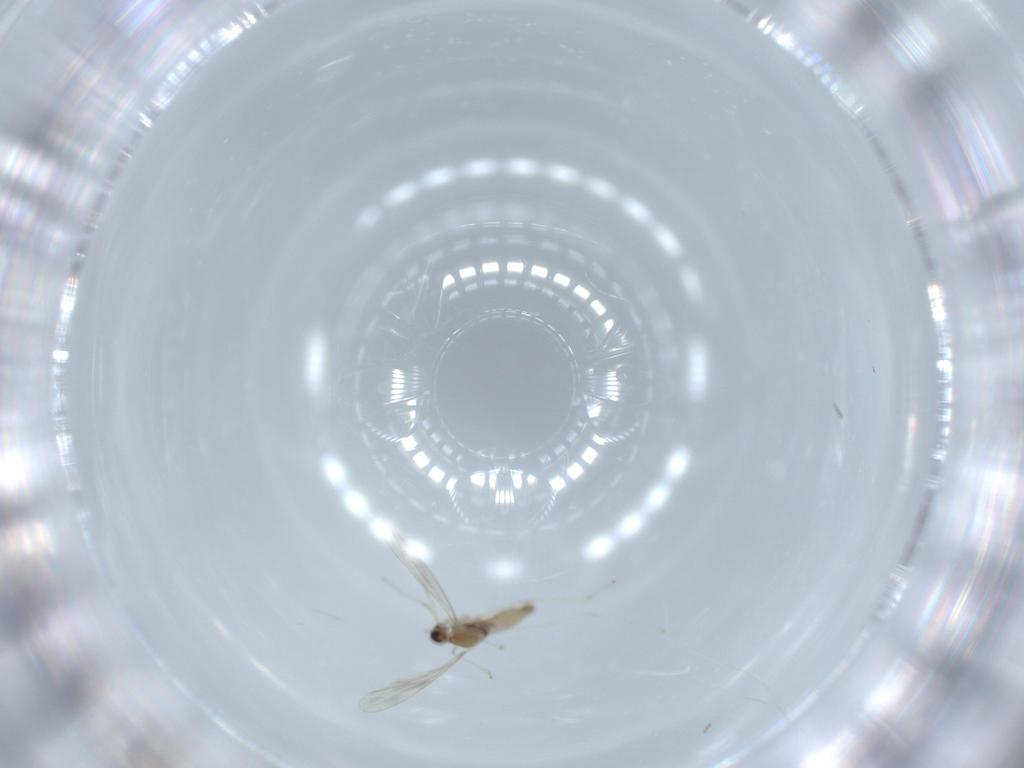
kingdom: Animalia
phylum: Arthropoda
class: Insecta
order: Diptera
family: Cecidomyiidae
